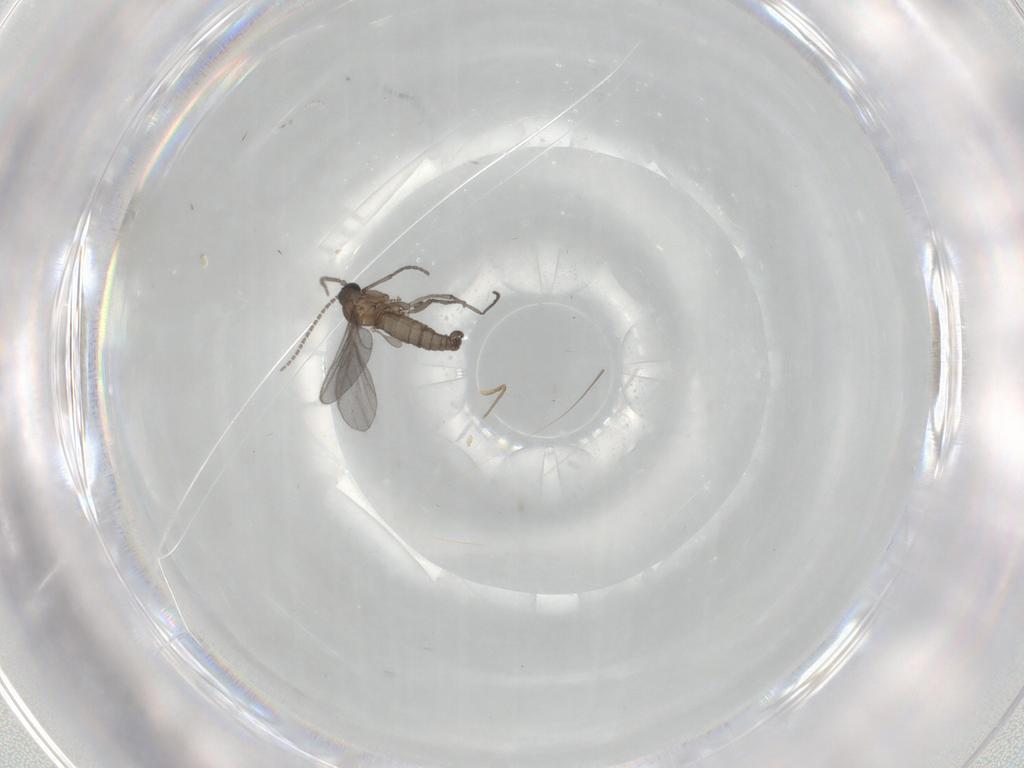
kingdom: Animalia
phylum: Arthropoda
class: Insecta
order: Diptera
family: Sciaridae
